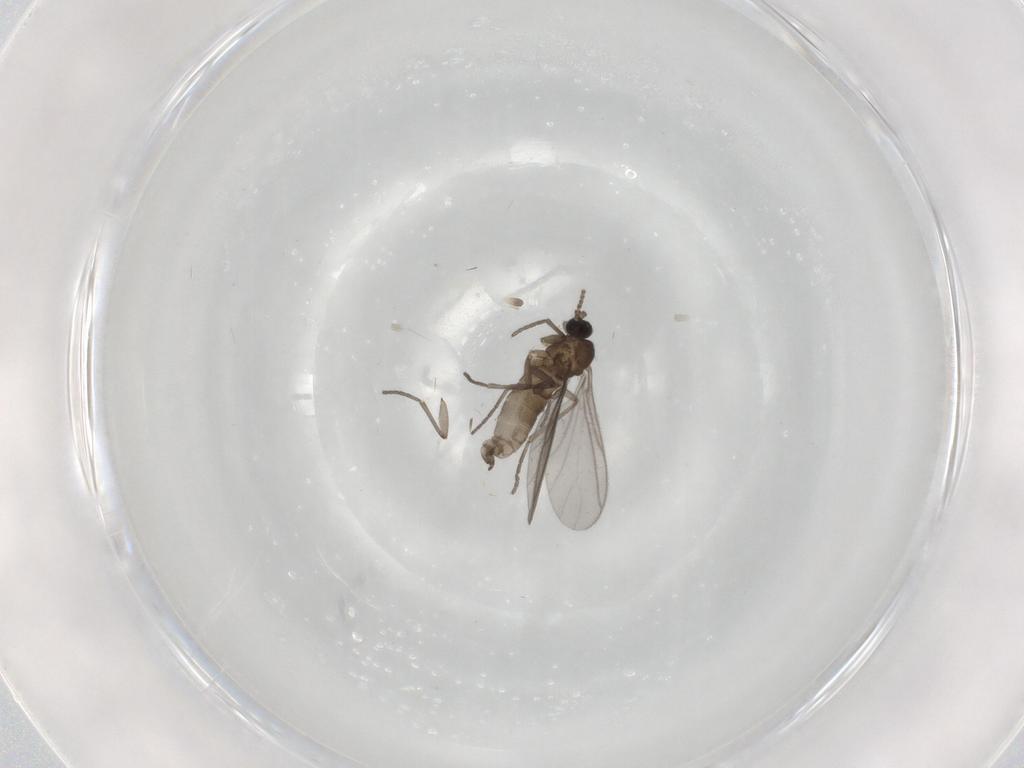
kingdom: Animalia
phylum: Arthropoda
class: Insecta
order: Diptera
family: Sciaridae
